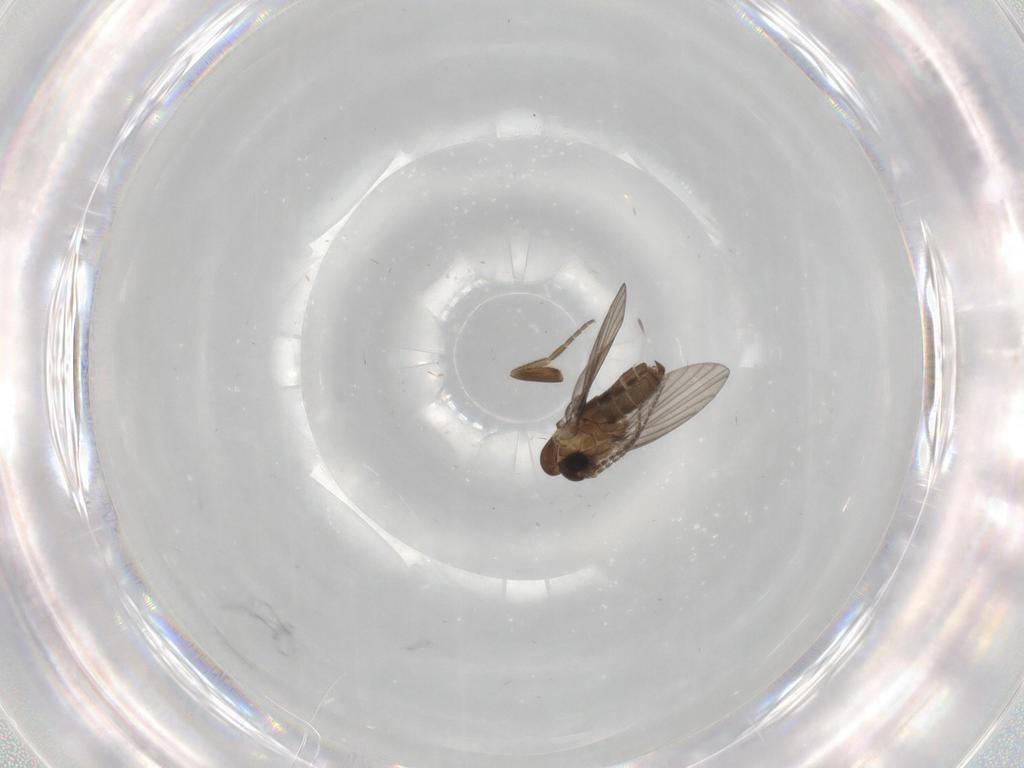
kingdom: Animalia
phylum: Arthropoda
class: Insecta
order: Diptera
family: Psychodidae
